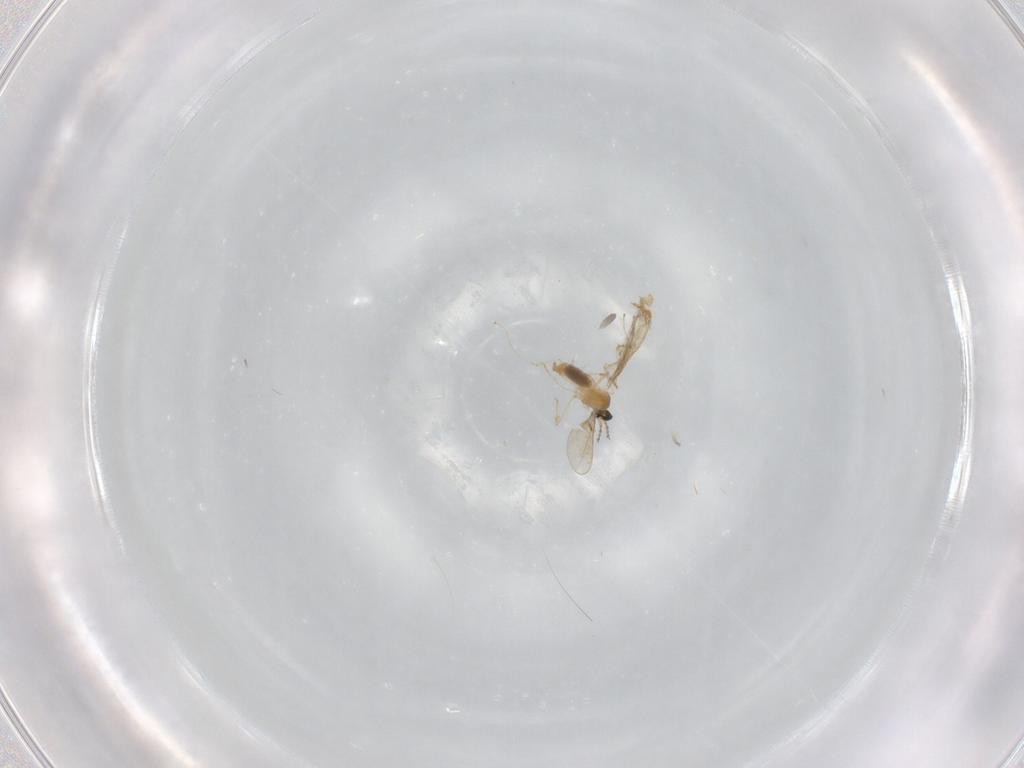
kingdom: Animalia
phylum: Arthropoda
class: Insecta
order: Diptera
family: Cecidomyiidae
